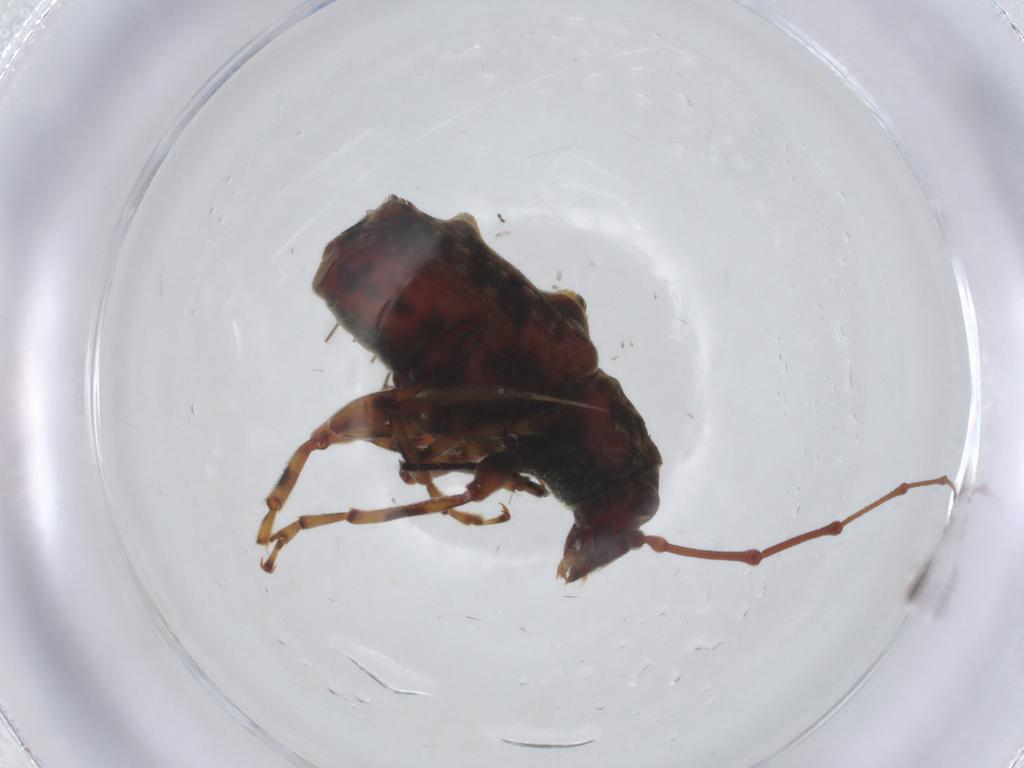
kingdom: Animalia
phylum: Arthropoda
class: Insecta
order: Coleoptera
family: Anthribidae
